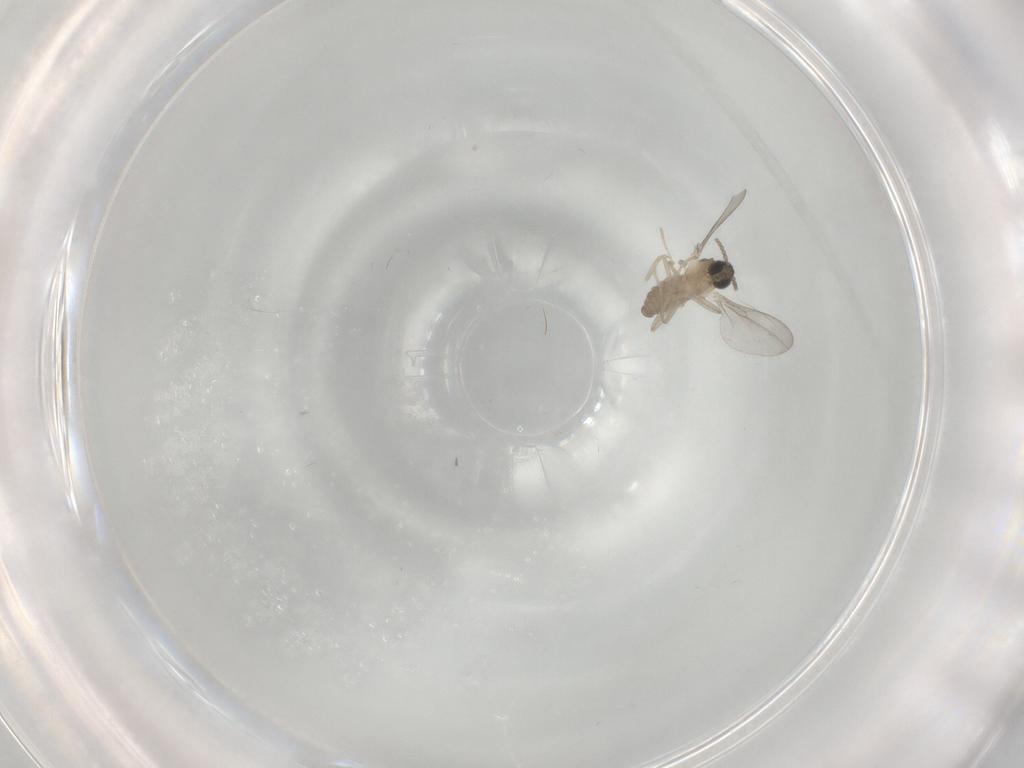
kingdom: Animalia
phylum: Arthropoda
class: Insecta
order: Diptera
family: Cecidomyiidae
